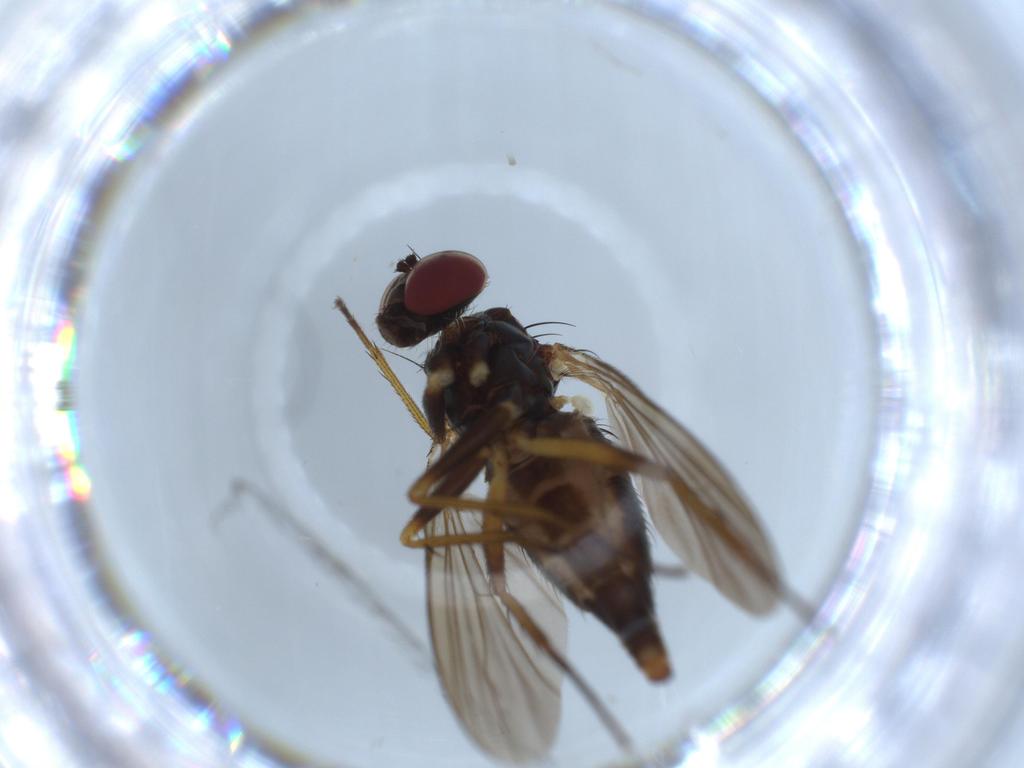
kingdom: Animalia
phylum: Arthropoda
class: Insecta
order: Diptera
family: Dolichopodidae
